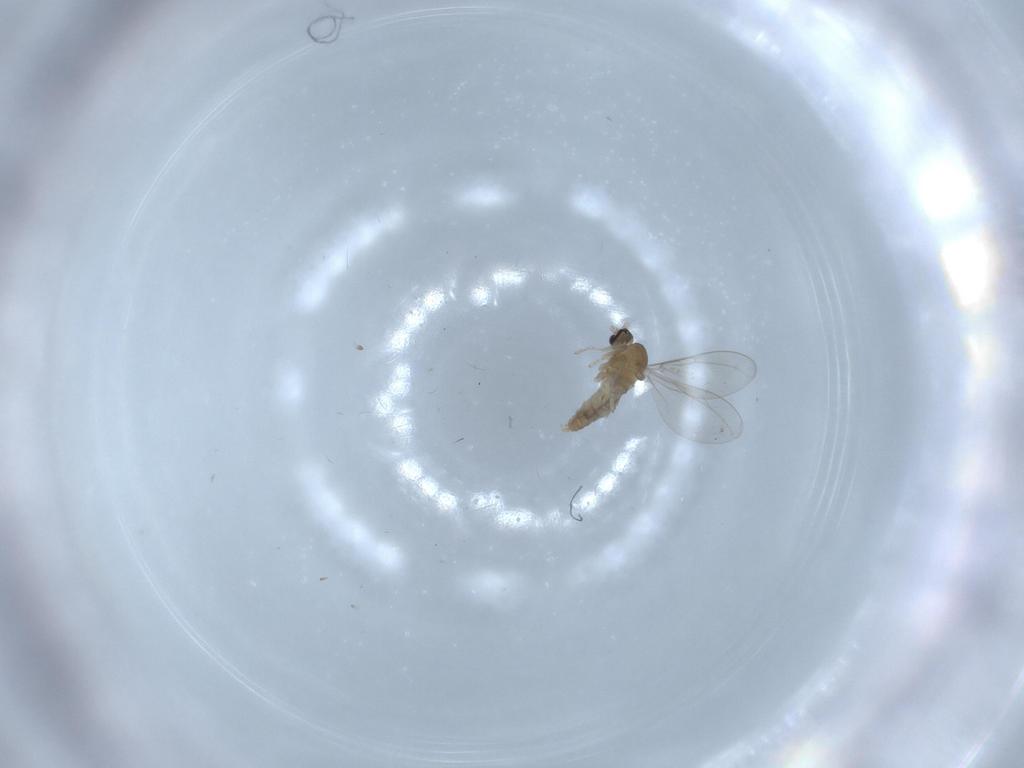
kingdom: Animalia
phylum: Arthropoda
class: Insecta
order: Diptera
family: Cecidomyiidae
